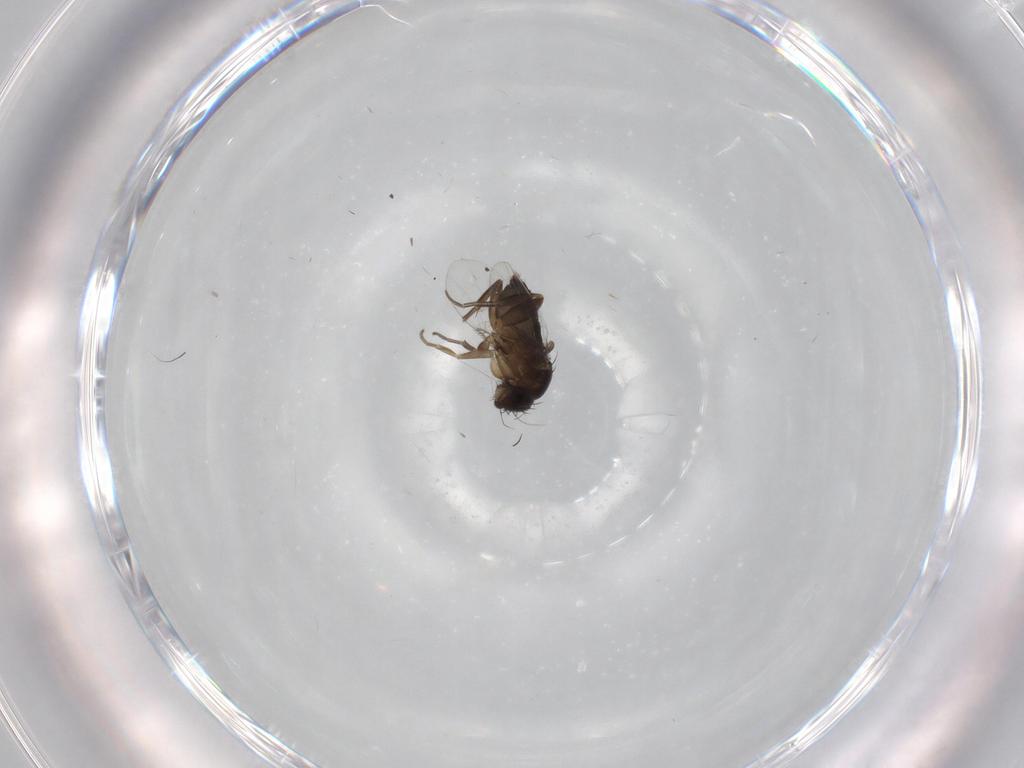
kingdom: Animalia
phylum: Arthropoda
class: Insecta
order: Diptera
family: Phoridae
